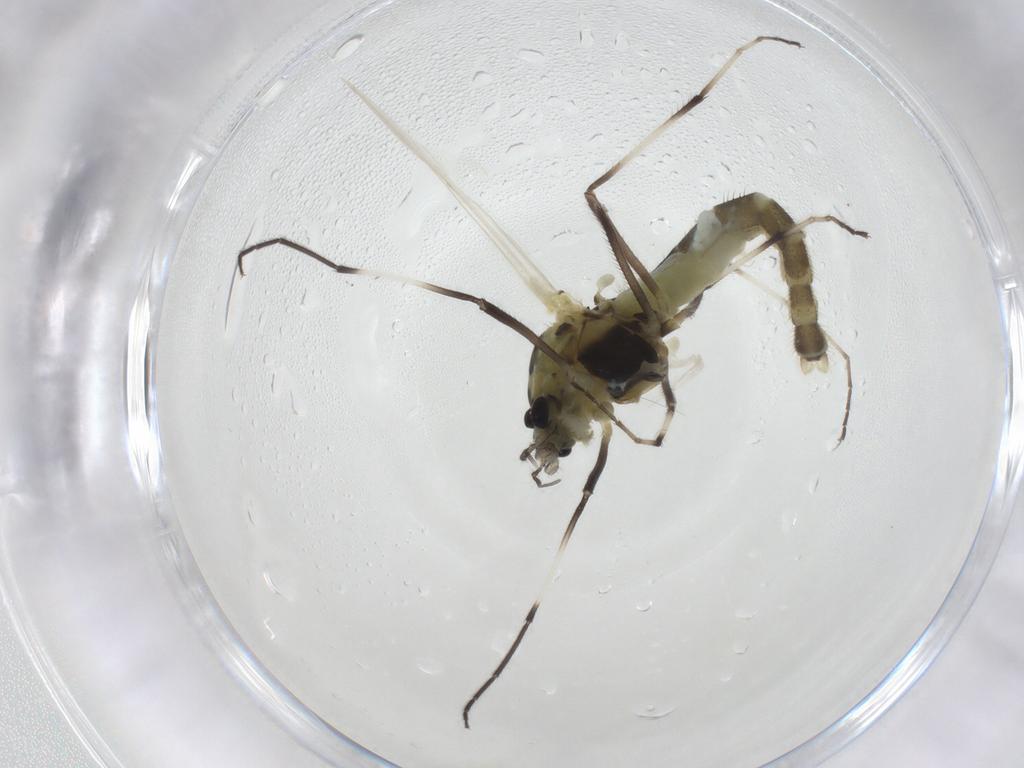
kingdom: Animalia
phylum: Arthropoda
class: Insecta
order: Diptera
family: Chironomidae
